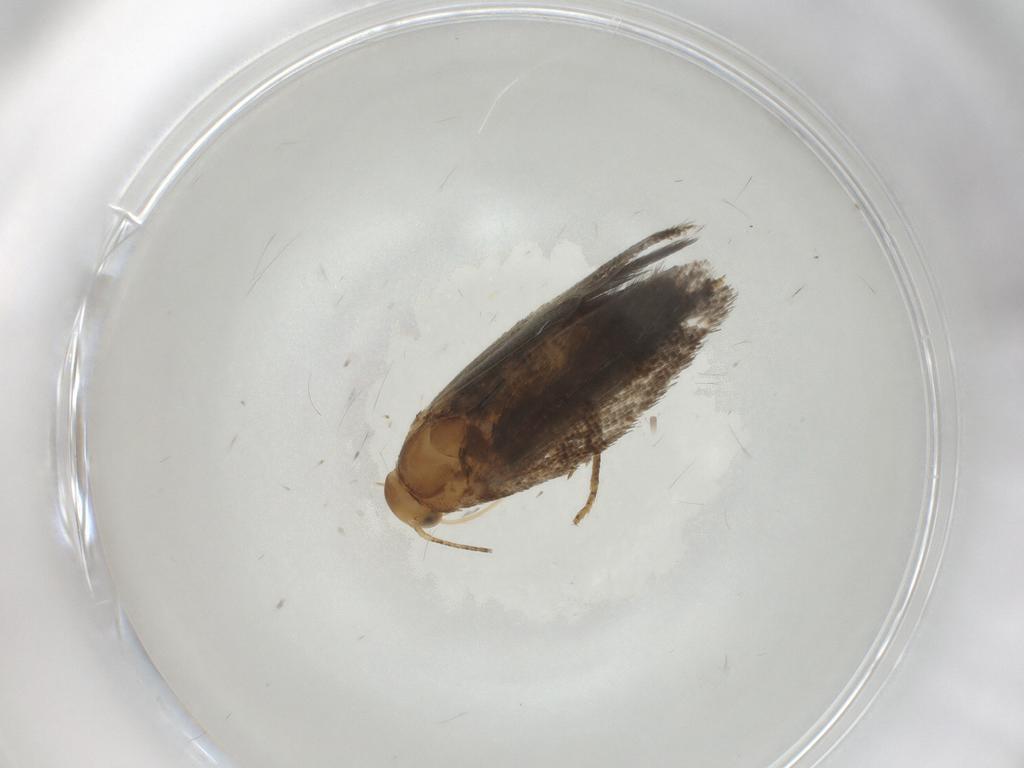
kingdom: Animalia
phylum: Arthropoda
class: Insecta
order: Lepidoptera
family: Gelechiidae
